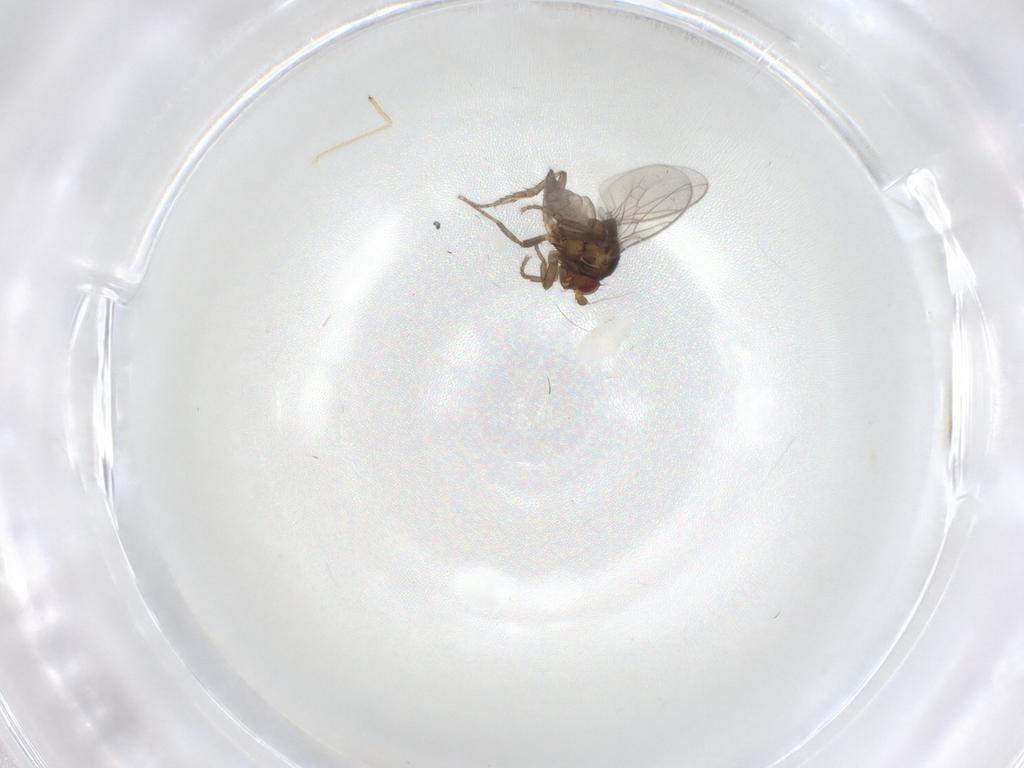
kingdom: Animalia
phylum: Arthropoda
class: Insecta
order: Diptera
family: Sphaeroceridae
